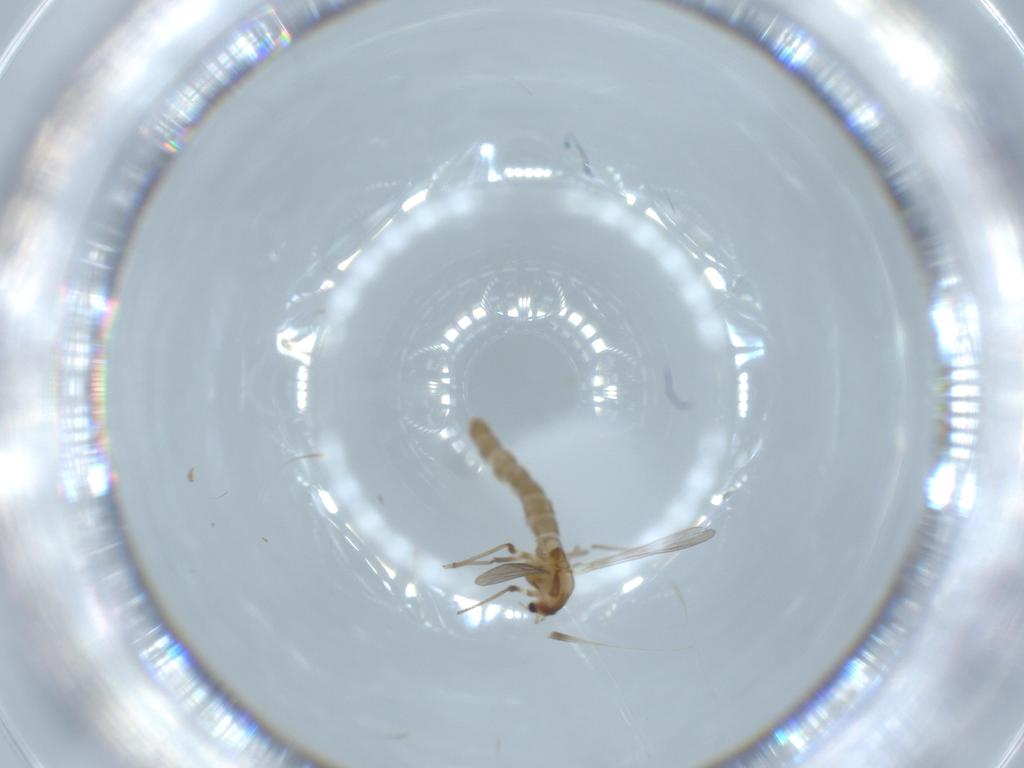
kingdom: Animalia
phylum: Arthropoda
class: Insecta
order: Diptera
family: Chironomidae
